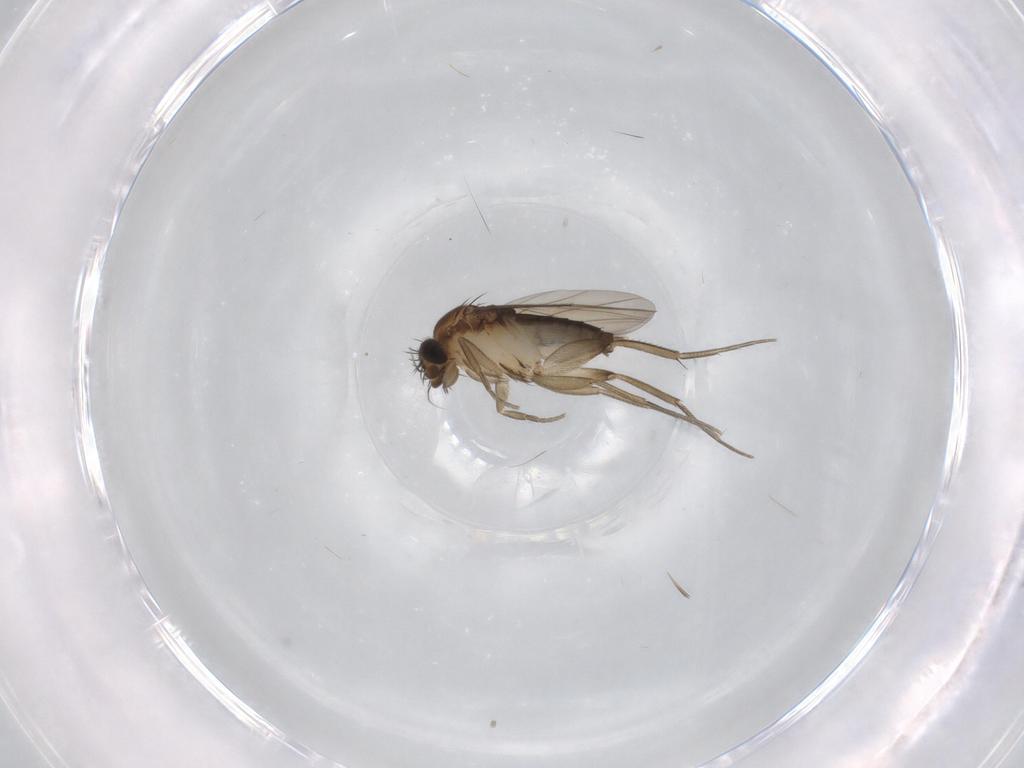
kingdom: Animalia
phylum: Arthropoda
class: Insecta
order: Diptera
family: Phoridae
